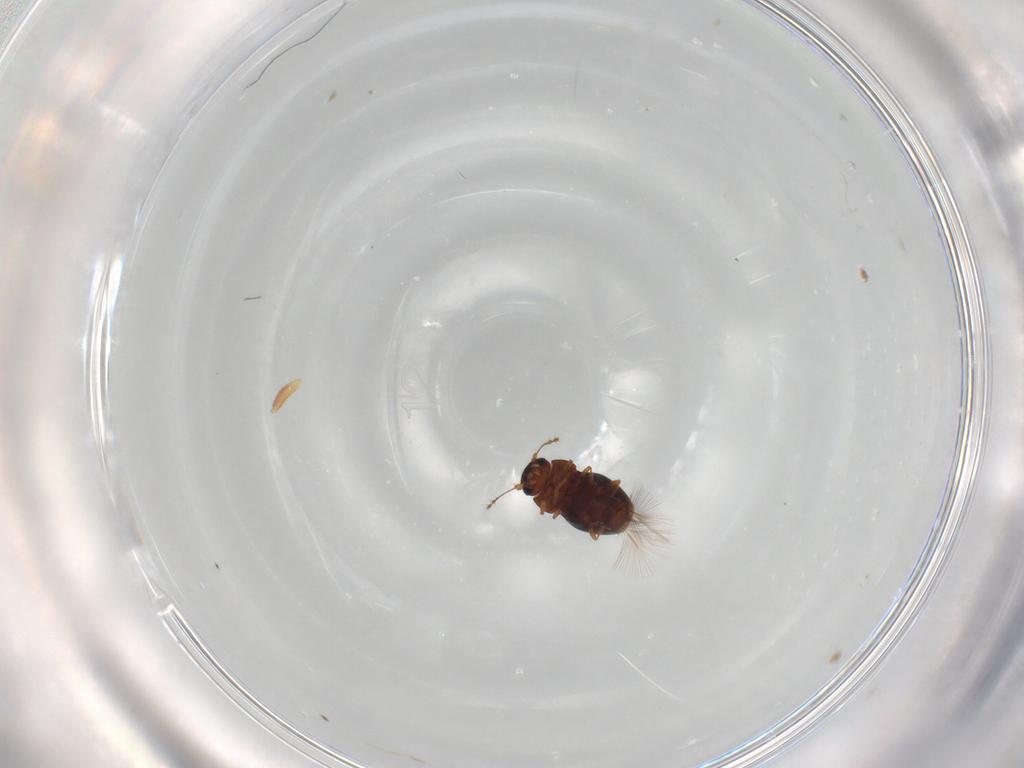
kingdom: Animalia
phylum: Arthropoda
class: Insecta
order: Coleoptera
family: Ptiliidae
